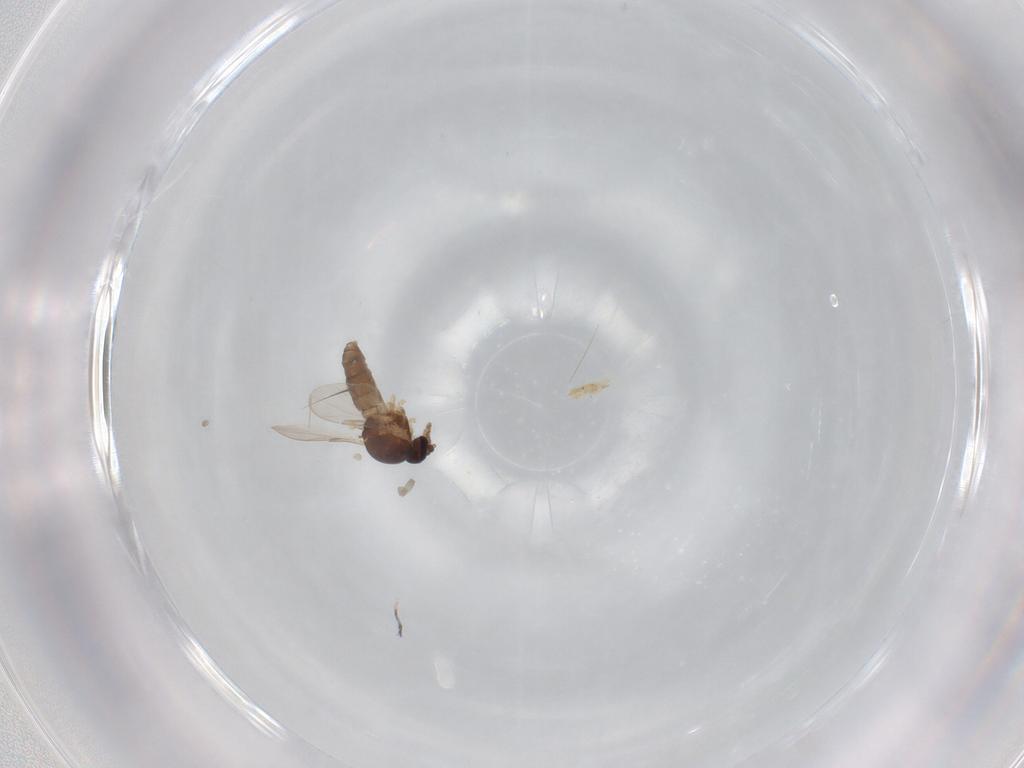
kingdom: Animalia
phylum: Arthropoda
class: Insecta
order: Diptera
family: Ceratopogonidae
